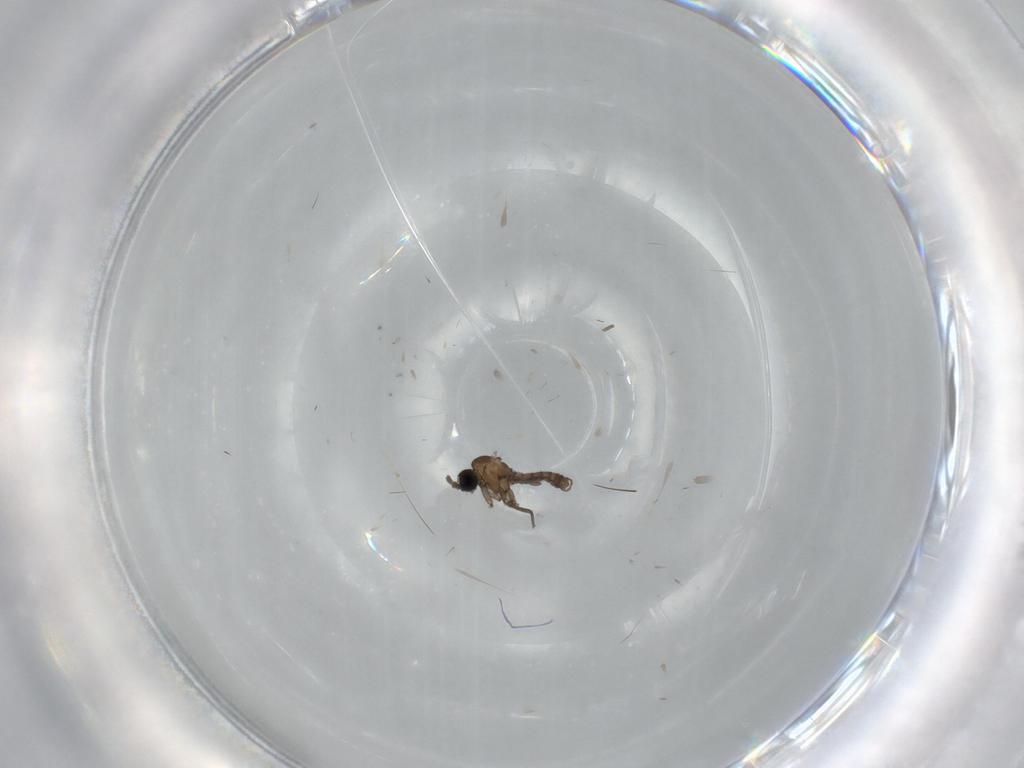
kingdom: Animalia
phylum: Arthropoda
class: Insecta
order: Diptera
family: Sciaridae
